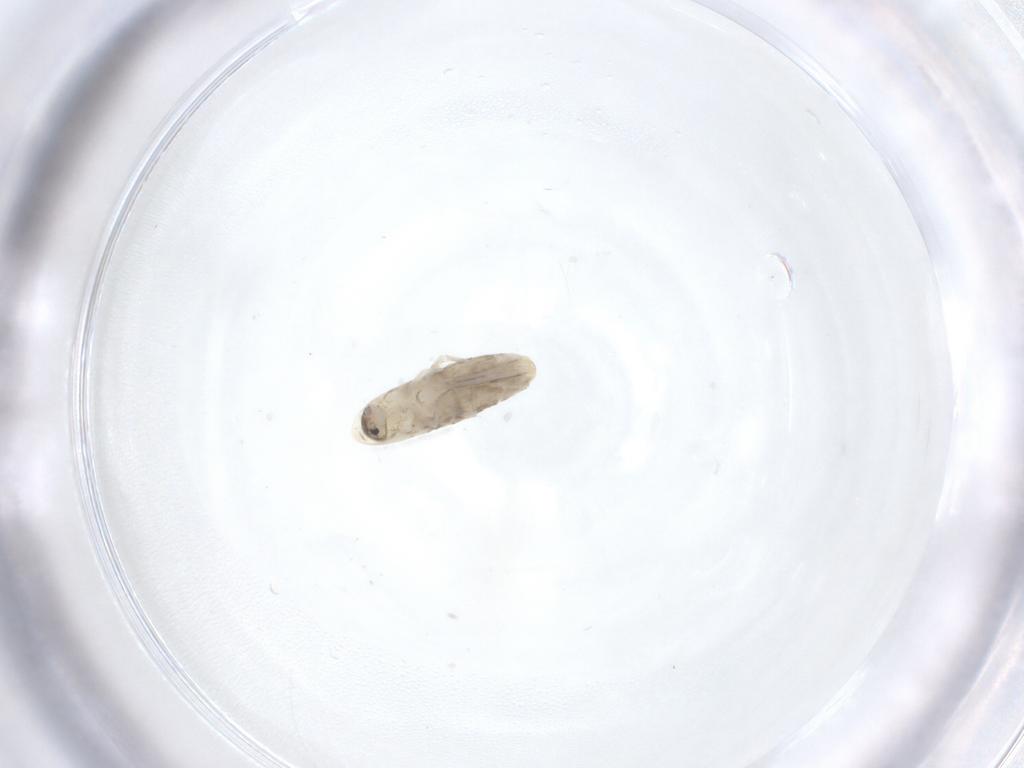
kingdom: Animalia
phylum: Arthropoda
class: Collembola
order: Entomobryomorpha
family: Entomobryidae
